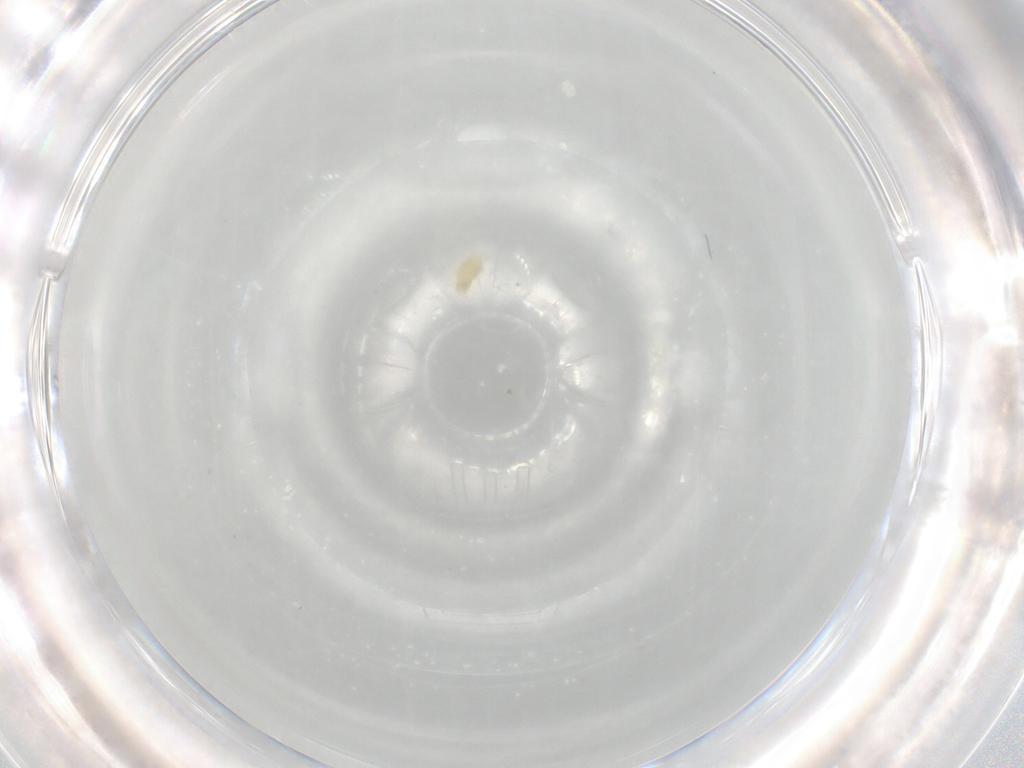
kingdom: Animalia
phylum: Arthropoda
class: Arachnida
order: Trombidiformes
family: Eupodidae
